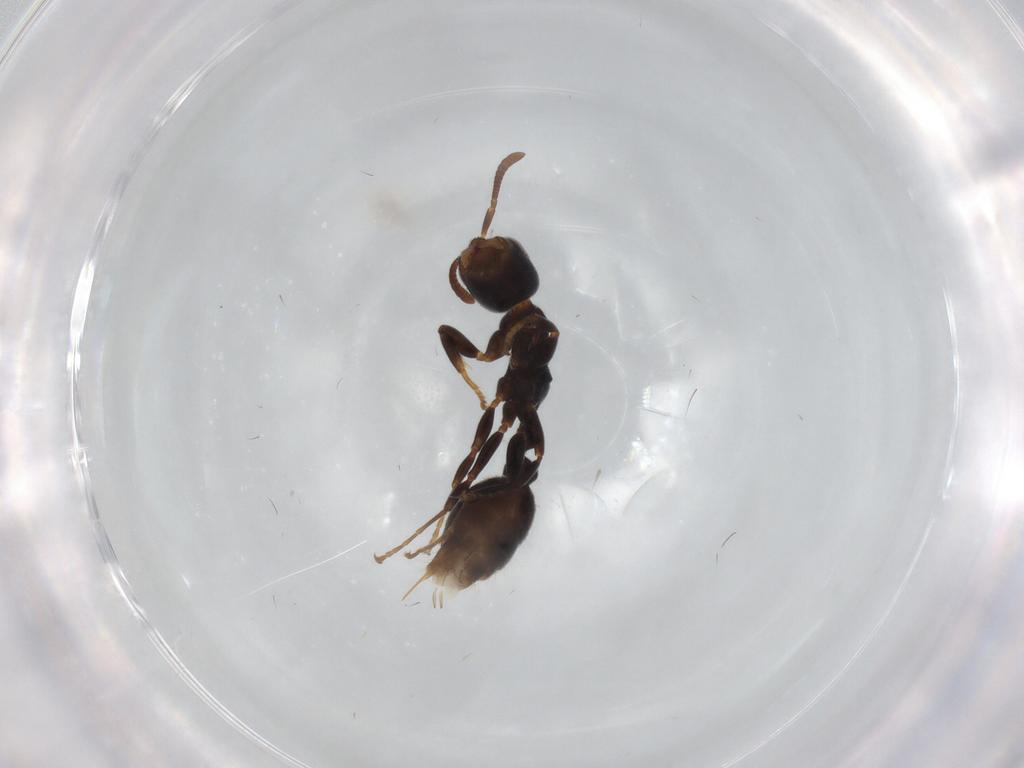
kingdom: Animalia
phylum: Arthropoda
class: Insecta
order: Hymenoptera
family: Formicidae
